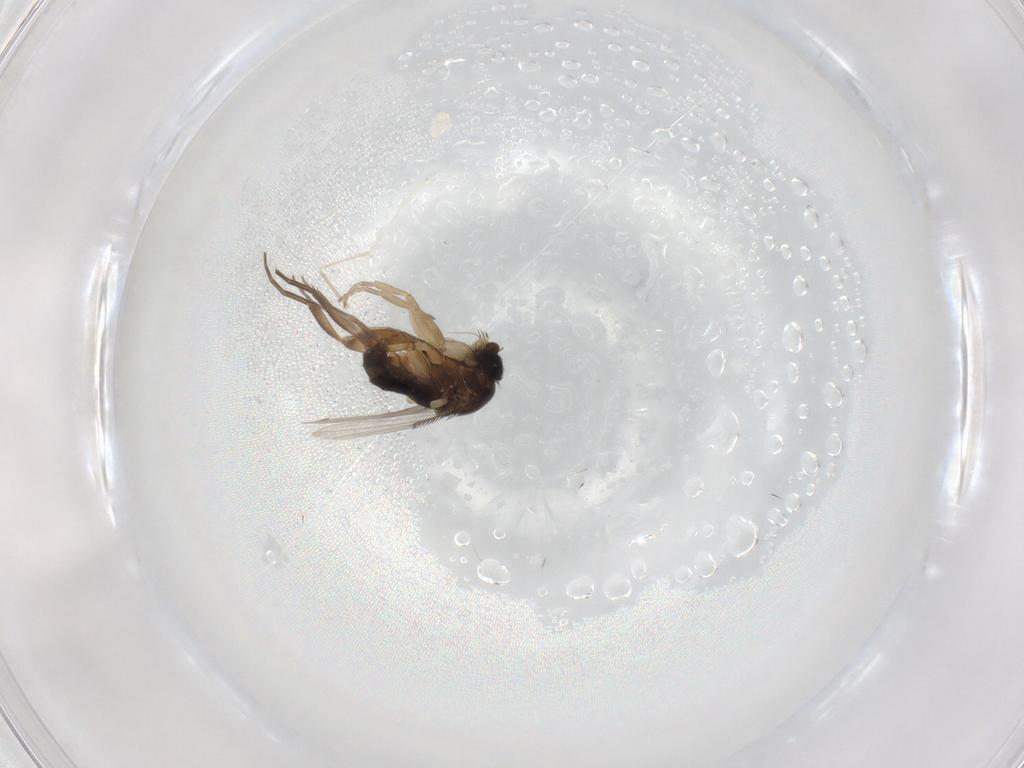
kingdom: Animalia
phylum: Arthropoda
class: Insecta
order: Diptera
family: Phoridae
